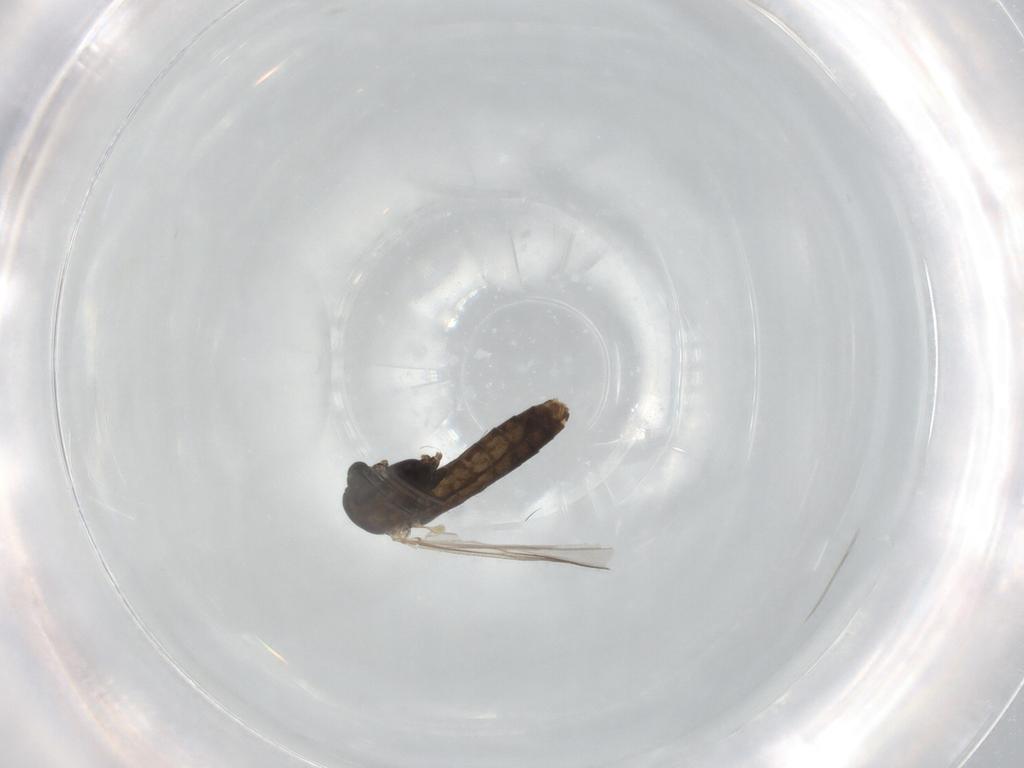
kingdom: Animalia
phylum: Arthropoda
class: Insecta
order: Diptera
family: Chironomidae
